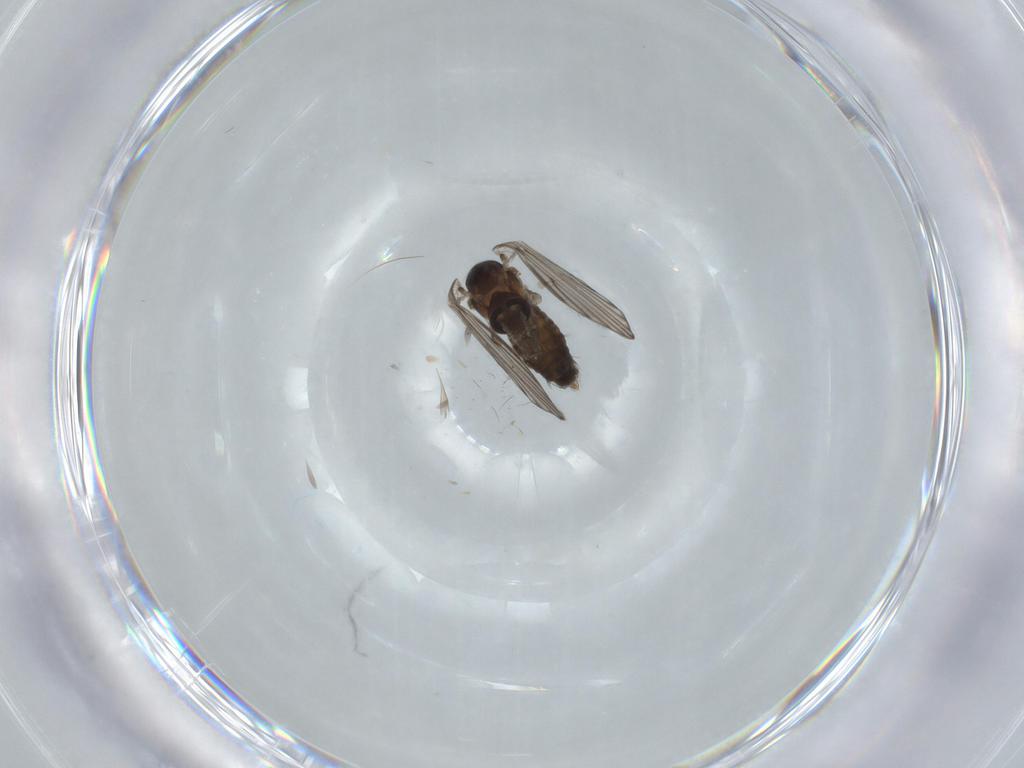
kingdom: Animalia
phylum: Arthropoda
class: Insecta
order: Diptera
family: Psychodidae
